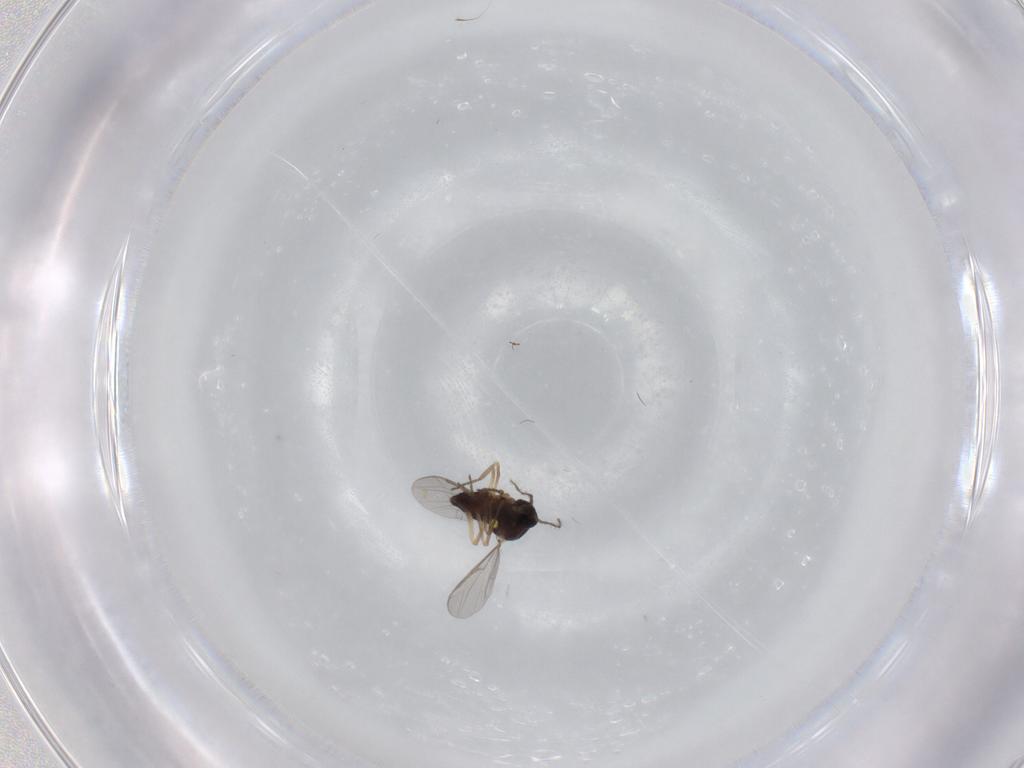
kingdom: Animalia
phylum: Arthropoda
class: Insecta
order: Diptera
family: Ceratopogonidae
